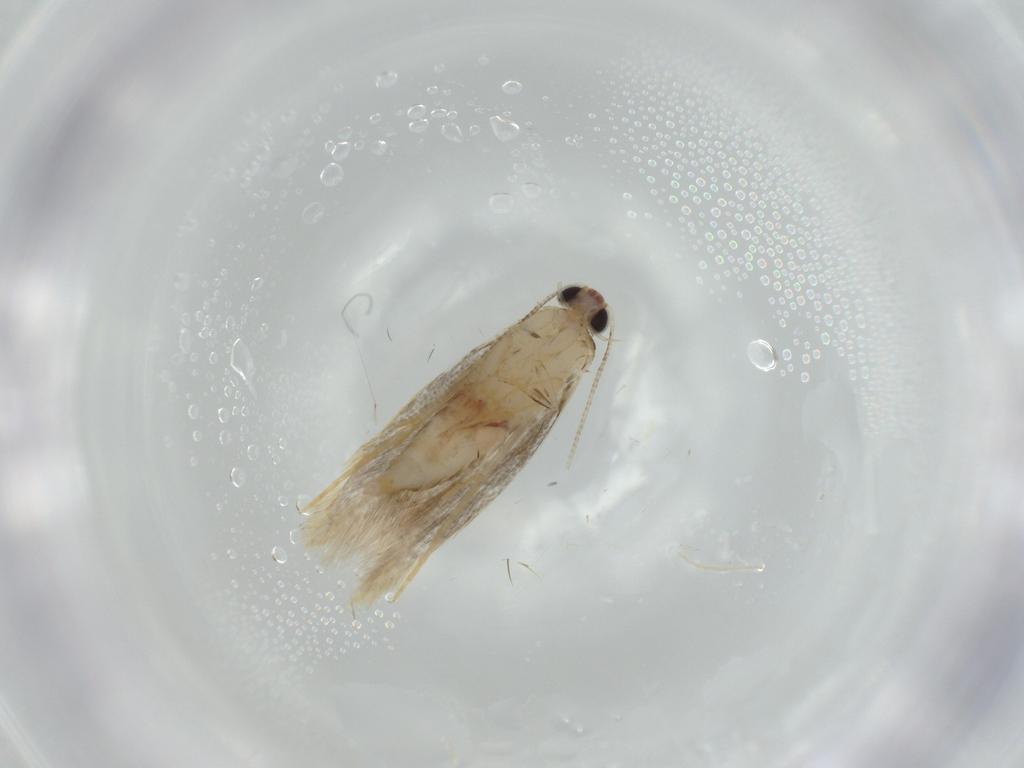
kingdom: Animalia
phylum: Arthropoda
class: Insecta
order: Lepidoptera
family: Tineidae
